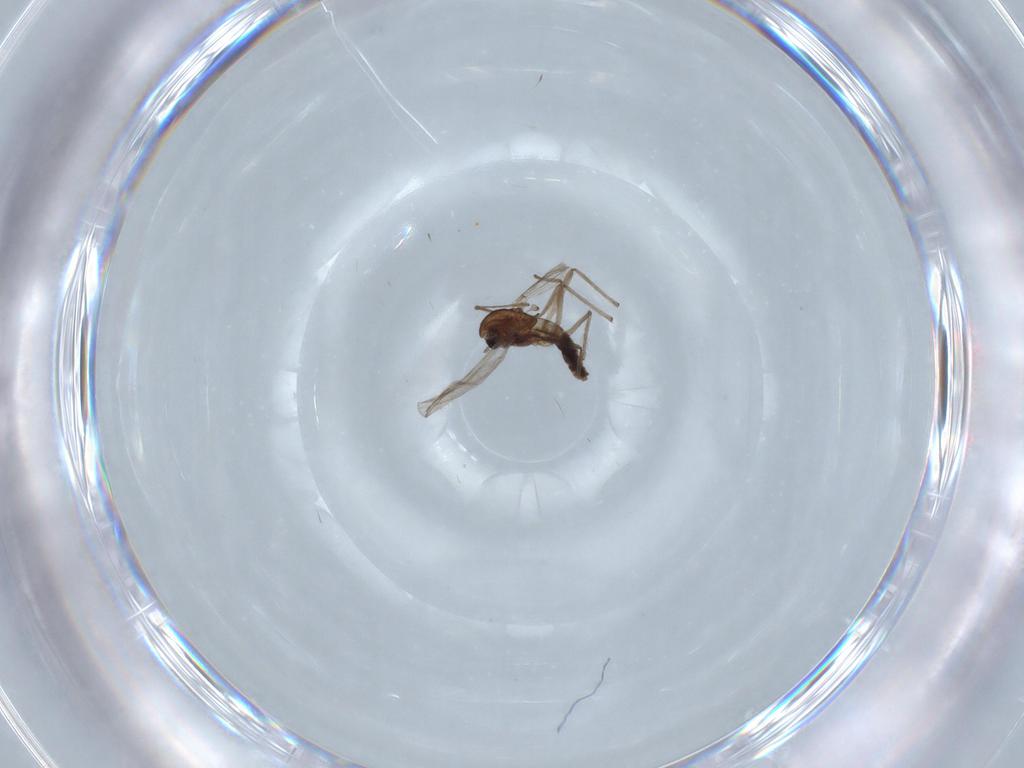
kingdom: Animalia
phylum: Arthropoda
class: Insecta
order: Diptera
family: Chironomidae
